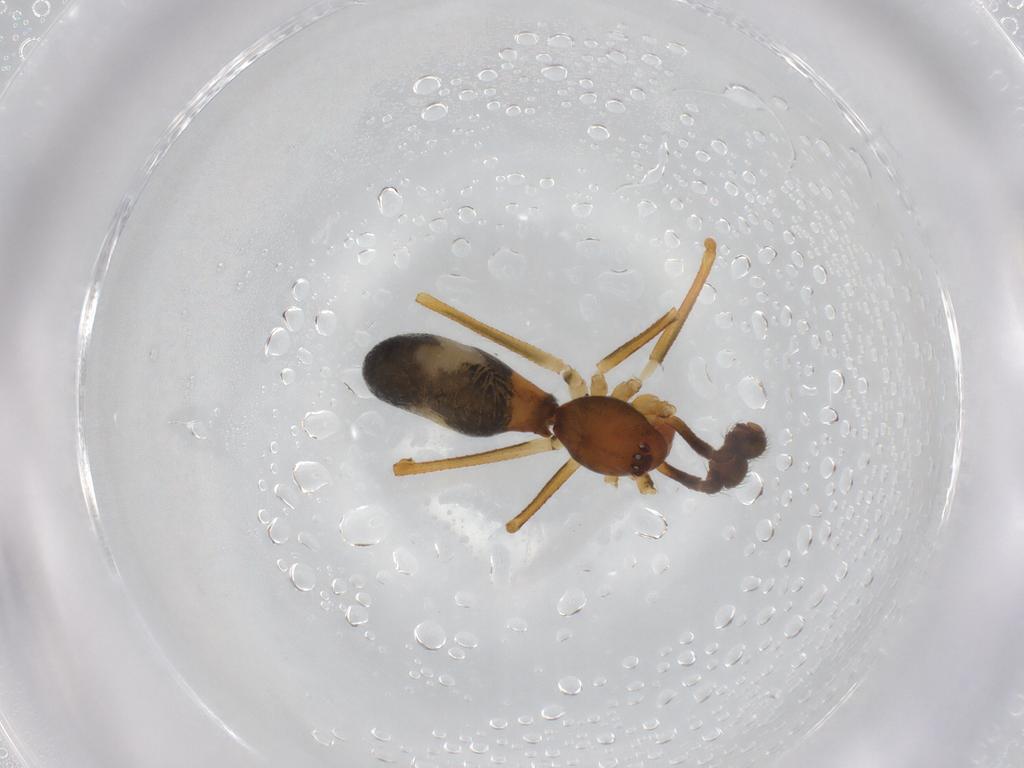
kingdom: Animalia
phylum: Arthropoda
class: Arachnida
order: Araneae
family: Theridiidae
